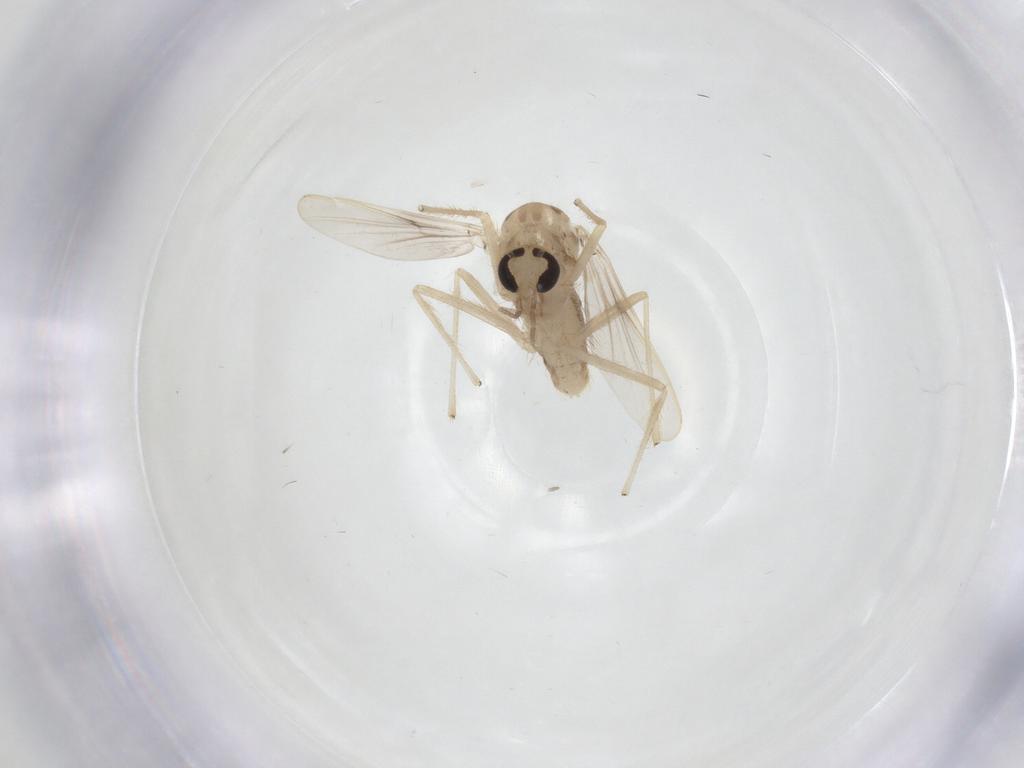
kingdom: Animalia
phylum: Arthropoda
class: Insecta
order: Diptera
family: Chironomidae
